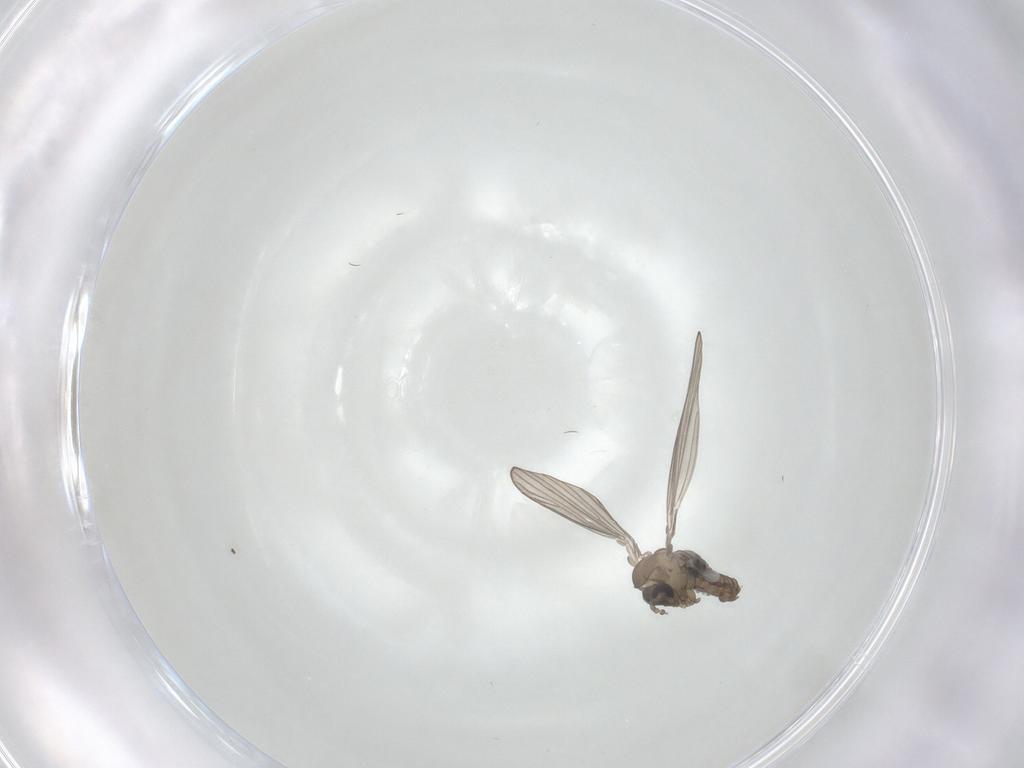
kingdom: Animalia
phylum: Arthropoda
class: Insecta
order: Diptera
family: Psychodidae
